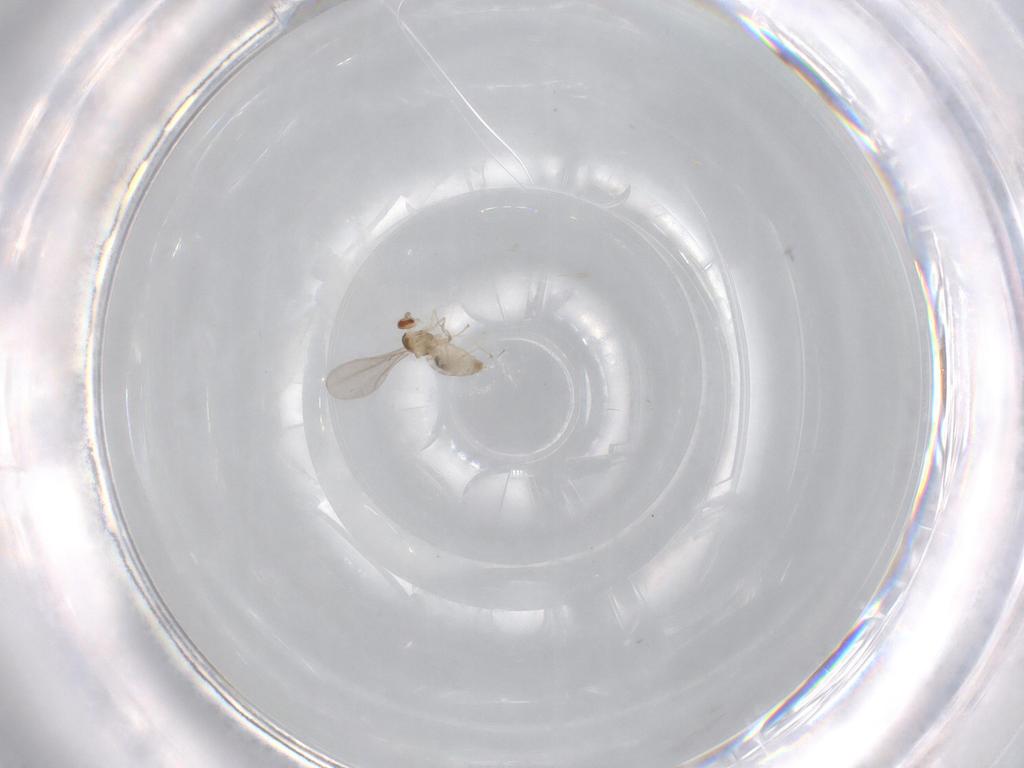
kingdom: Animalia
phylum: Arthropoda
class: Insecta
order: Diptera
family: Cecidomyiidae
